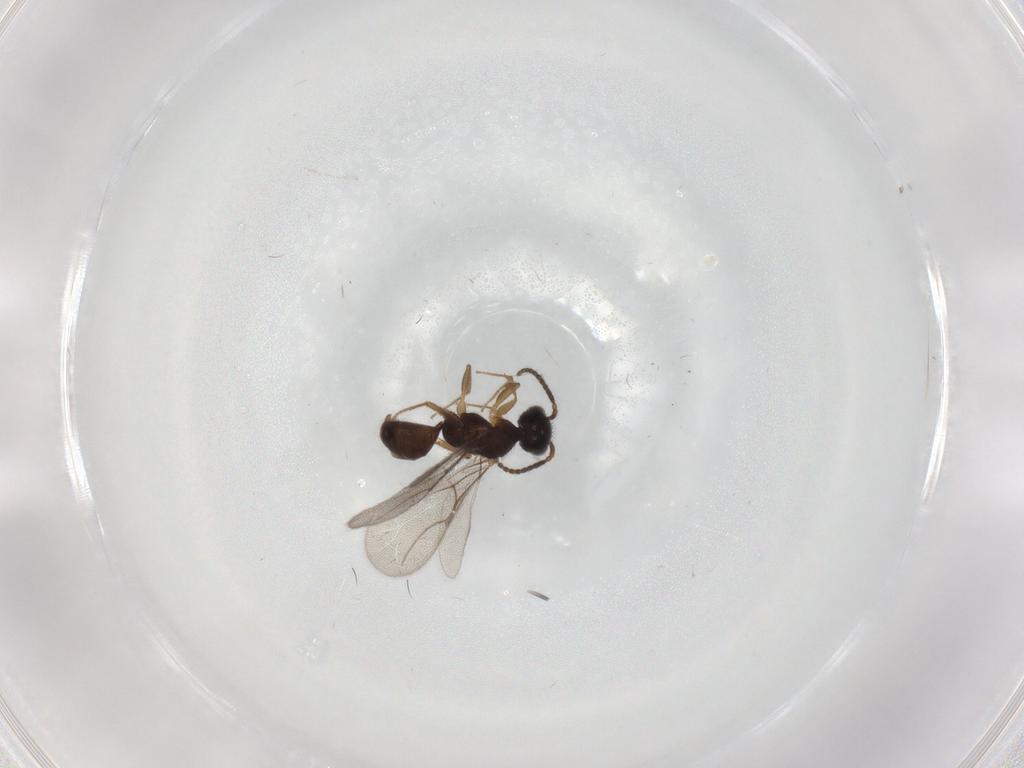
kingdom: Animalia
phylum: Arthropoda
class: Insecta
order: Hymenoptera
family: Bethylidae
